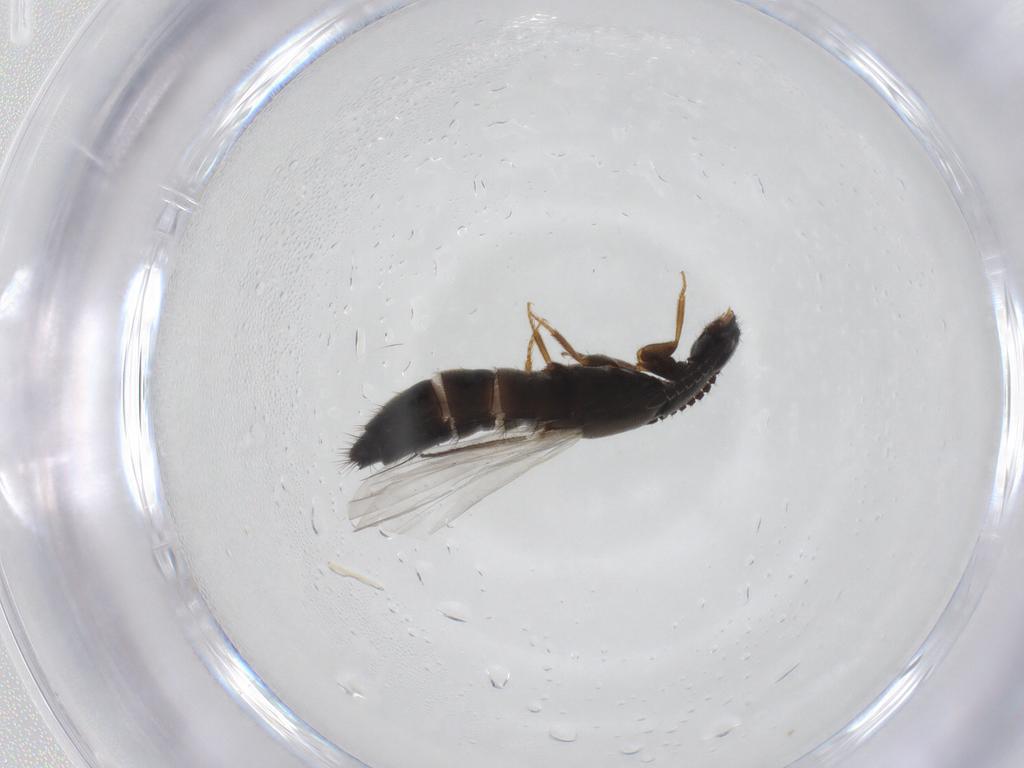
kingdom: Animalia
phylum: Arthropoda
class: Insecta
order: Coleoptera
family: Staphylinidae
